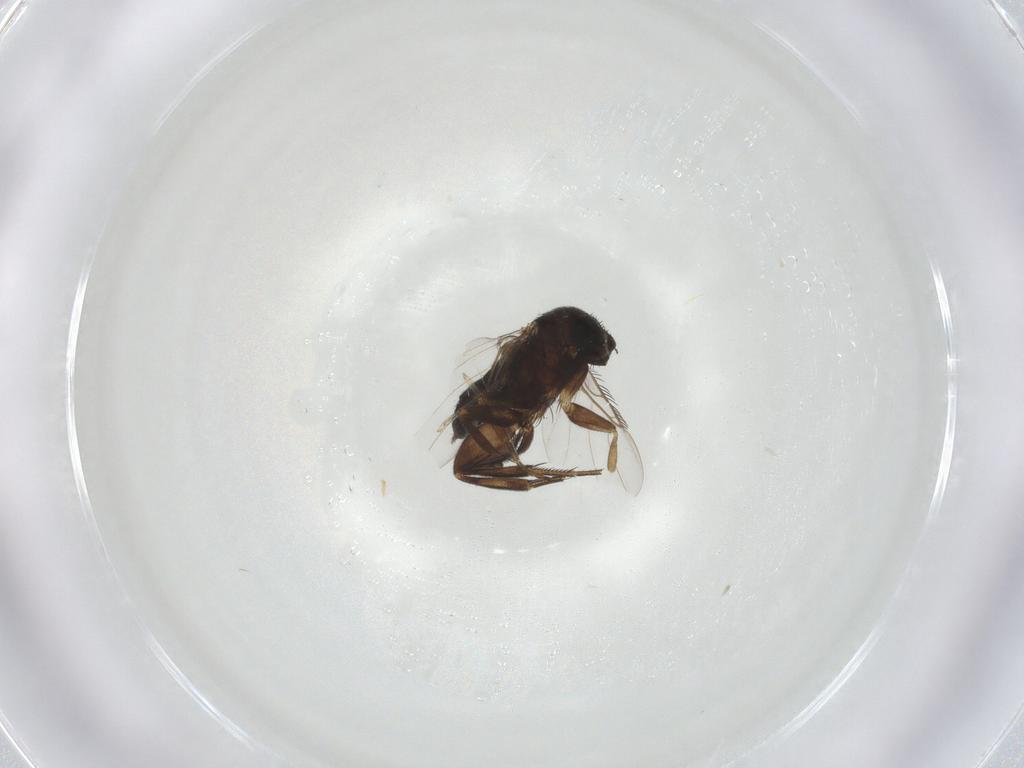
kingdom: Animalia
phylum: Arthropoda
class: Insecta
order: Diptera
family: Phoridae
